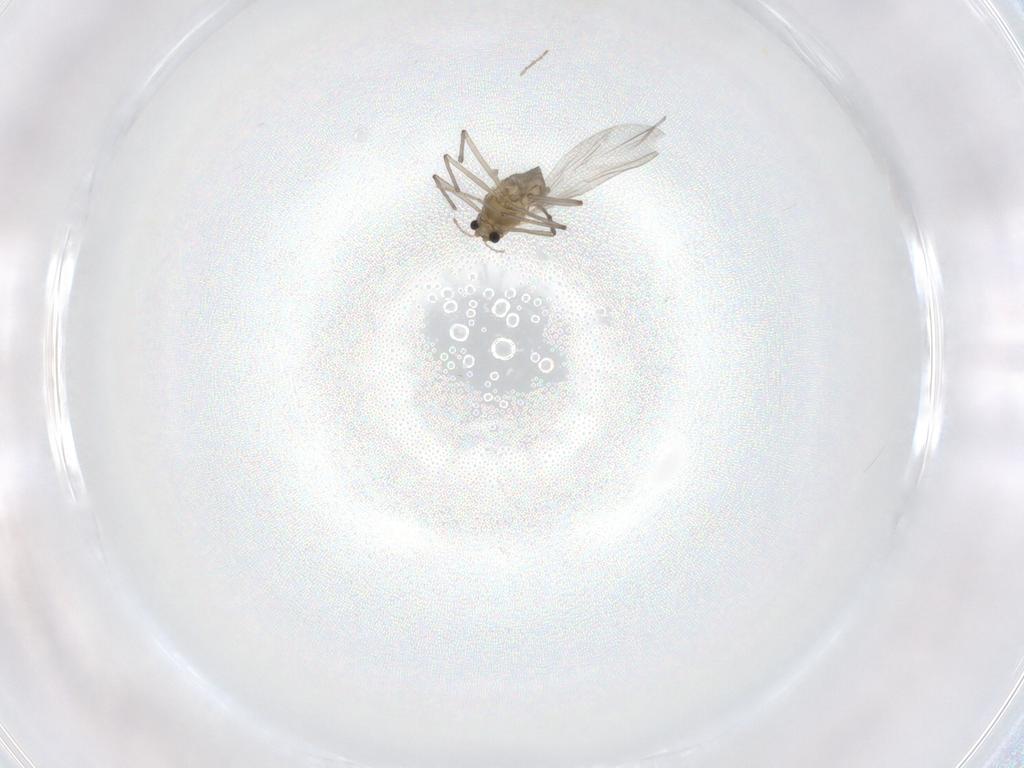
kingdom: Animalia
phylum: Arthropoda
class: Insecta
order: Diptera
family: Chironomidae
